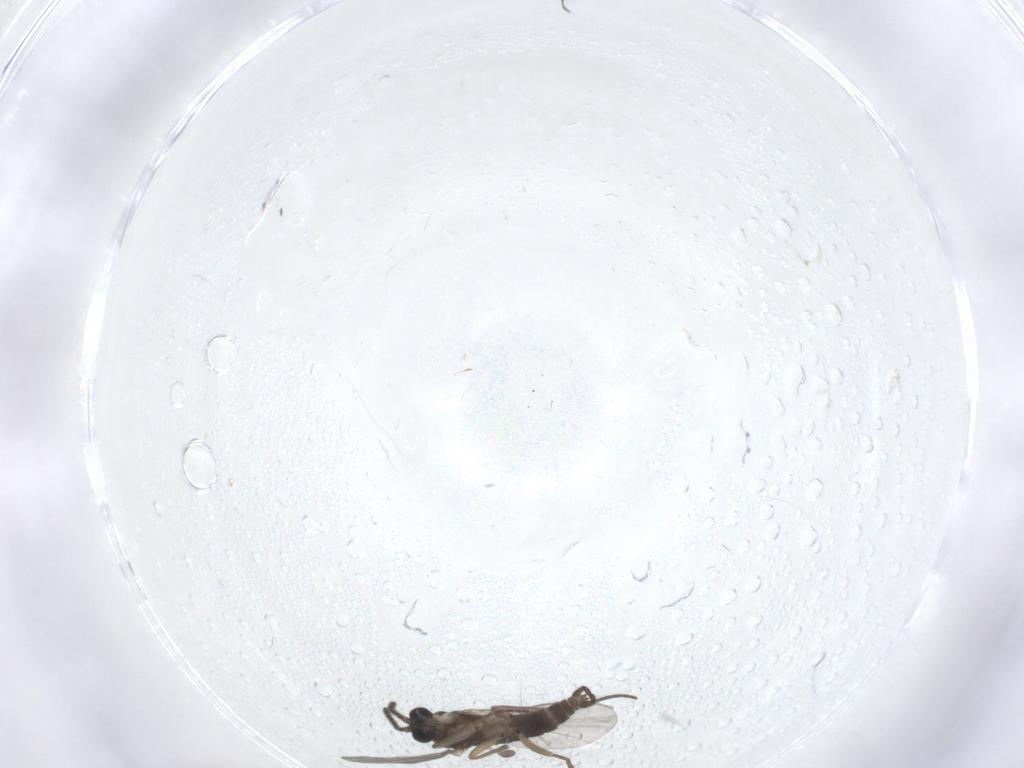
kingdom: Animalia
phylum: Arthropoda
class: Insecta
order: Diptera
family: Sciaridae
